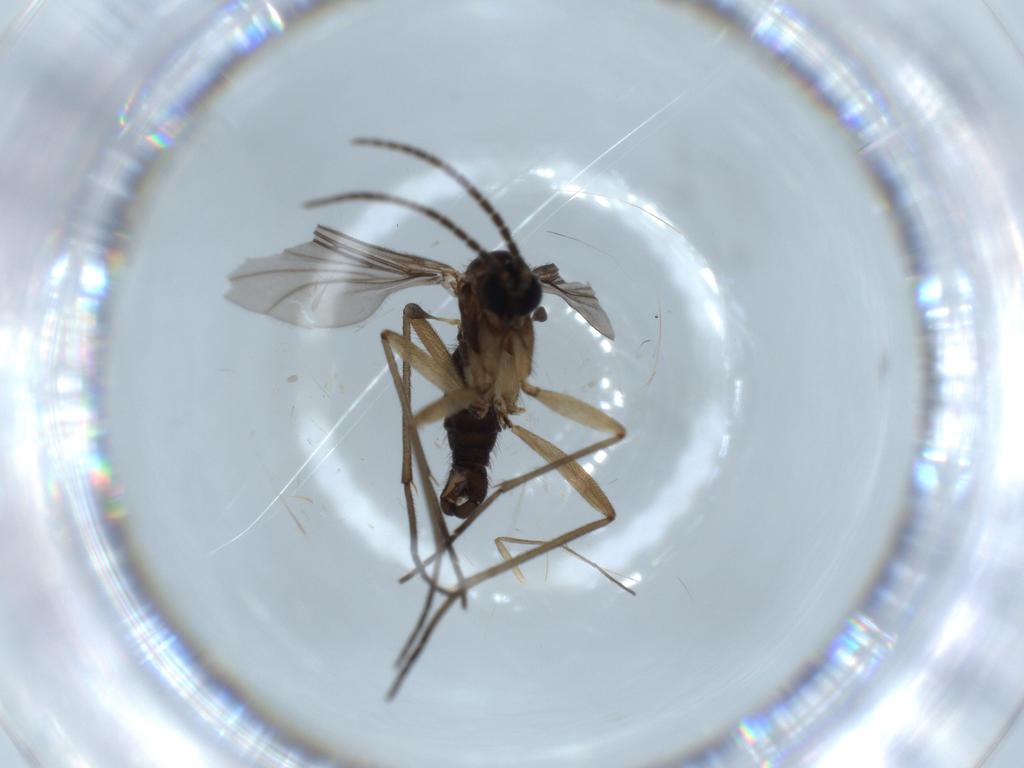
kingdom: Animalia
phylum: Arthropoda
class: Insecta
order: Diptera
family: Sciaridae
